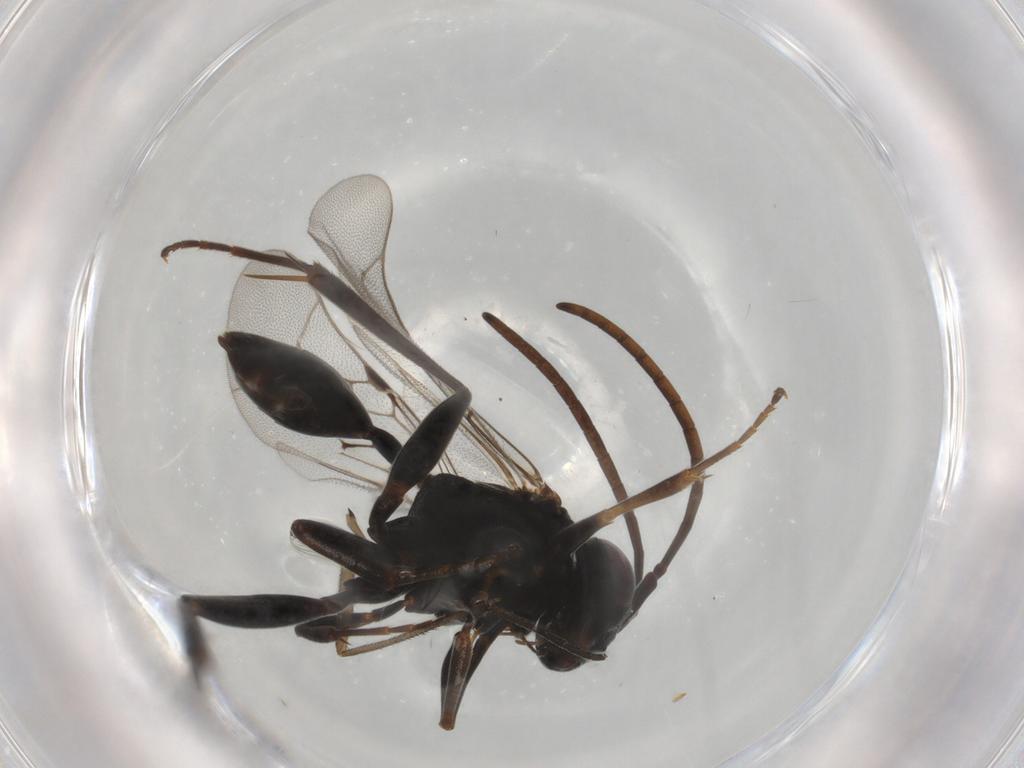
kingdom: Animalia
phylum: Arthropoda
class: Insecta
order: Hymenoptera
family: Evaniidae
